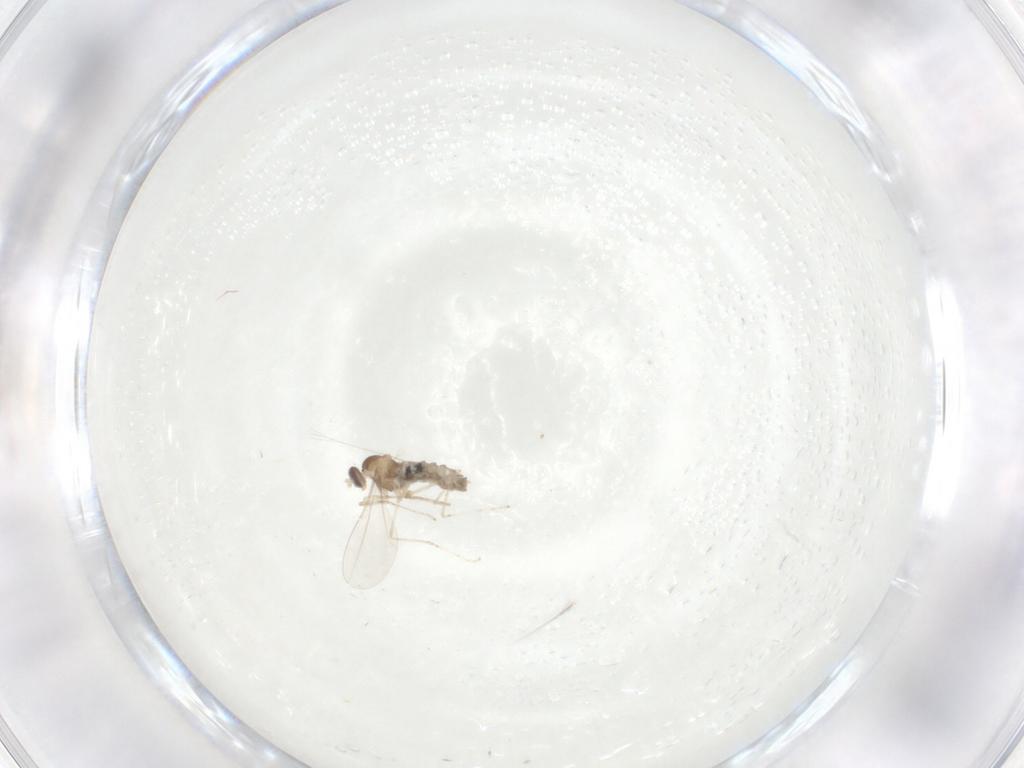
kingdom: Animalia
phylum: Arthropoda
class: Insecta
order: Diptera
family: Cecidomyiidae
